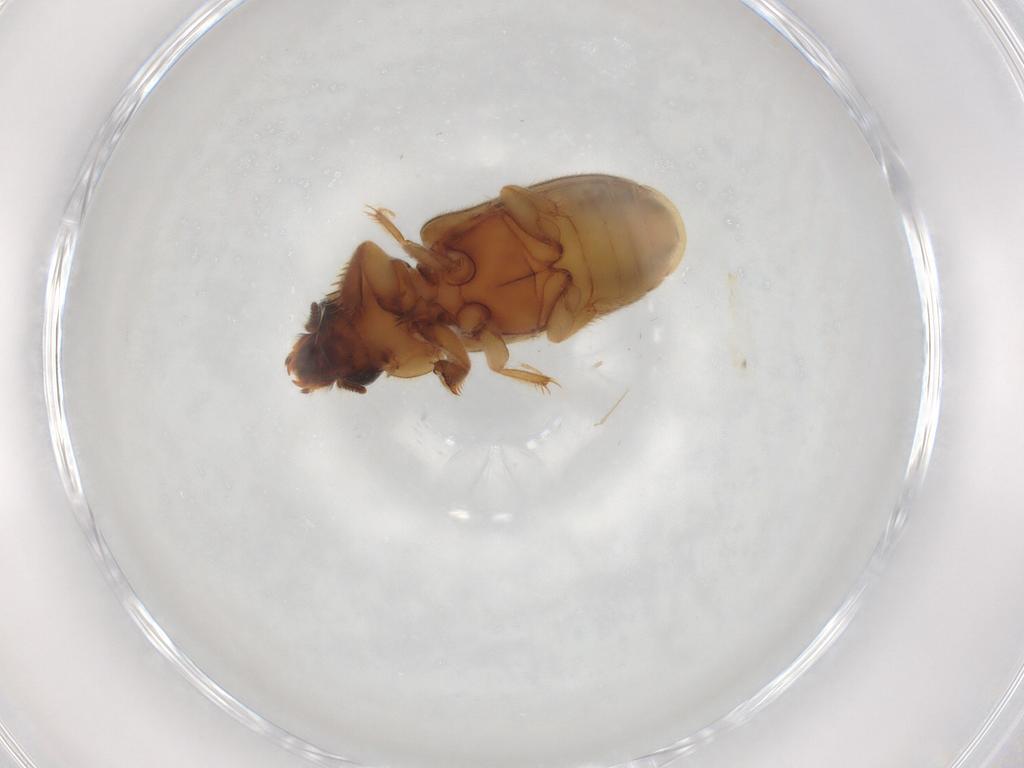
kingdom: Animalia
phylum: Arthropoda
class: Insecta
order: Coleoptera
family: Heteroceridae
